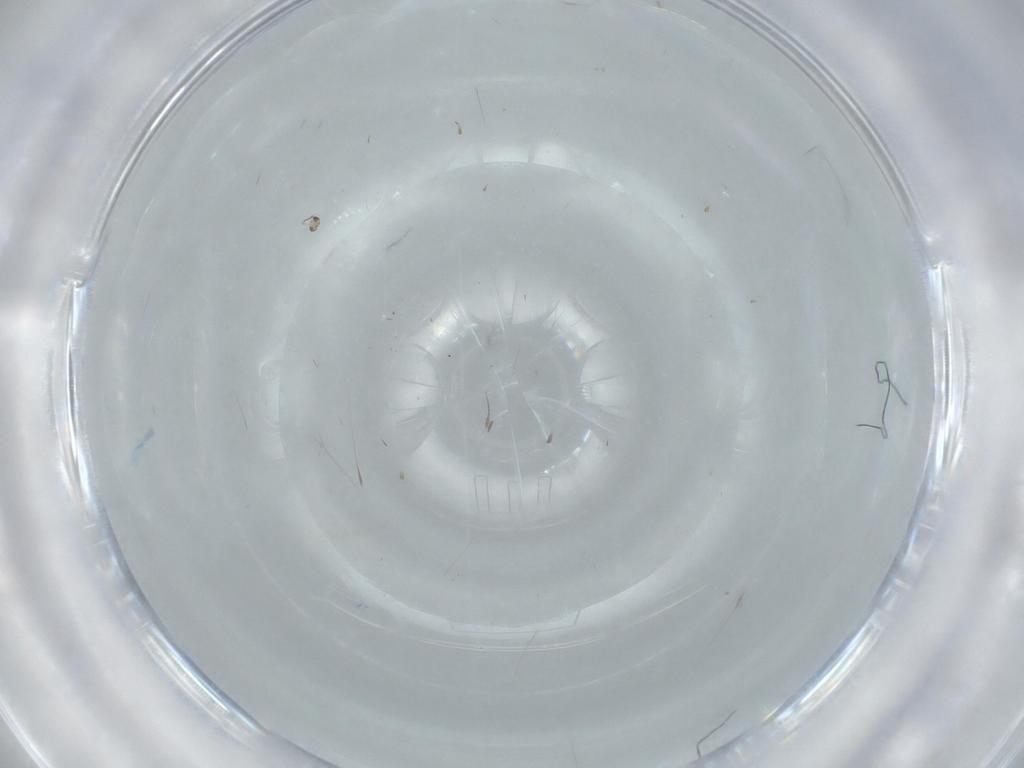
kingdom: Animalia
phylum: Arthropoda
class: Insecta
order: Diptera
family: Cecidomyiidae
